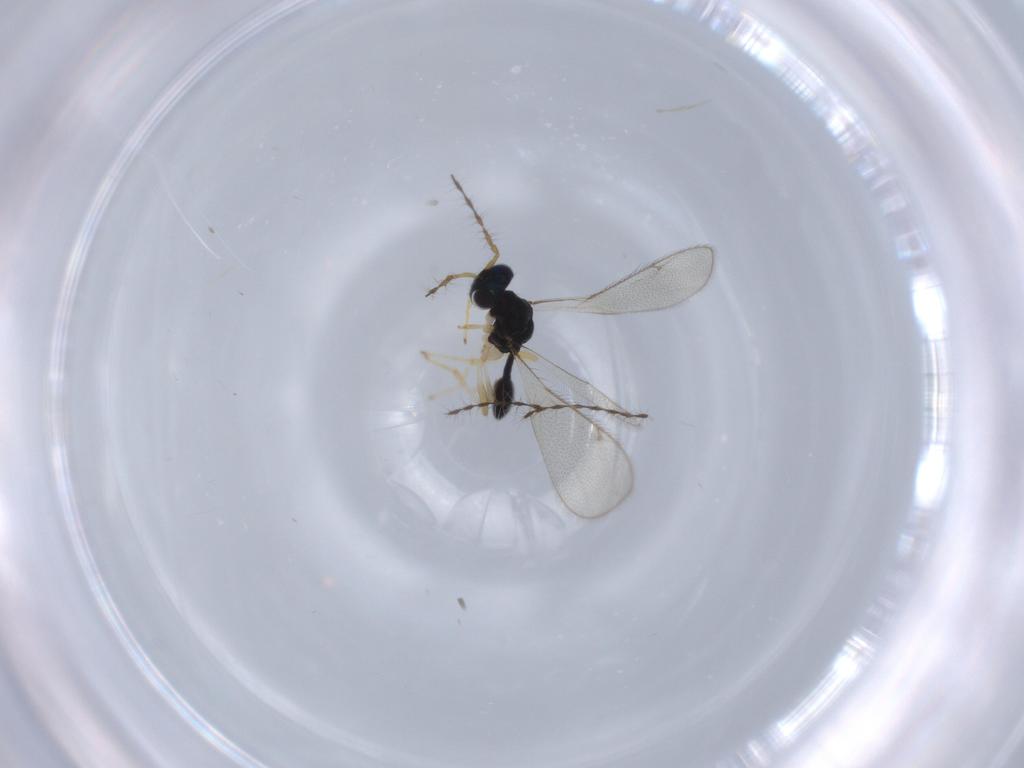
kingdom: Animalia
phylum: Arthropoda
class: Insecta
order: Hymenoptera
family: Diparidae
